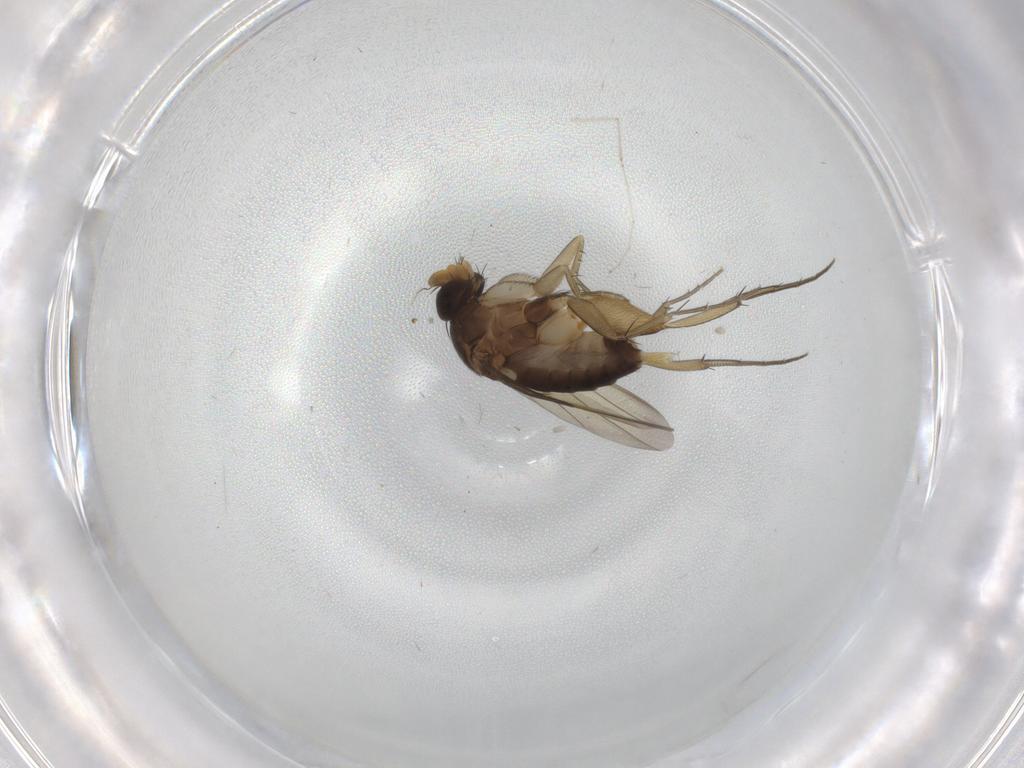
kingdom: Animalia
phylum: Arthropoda
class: Insecta
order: Diptera
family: Phoridae
